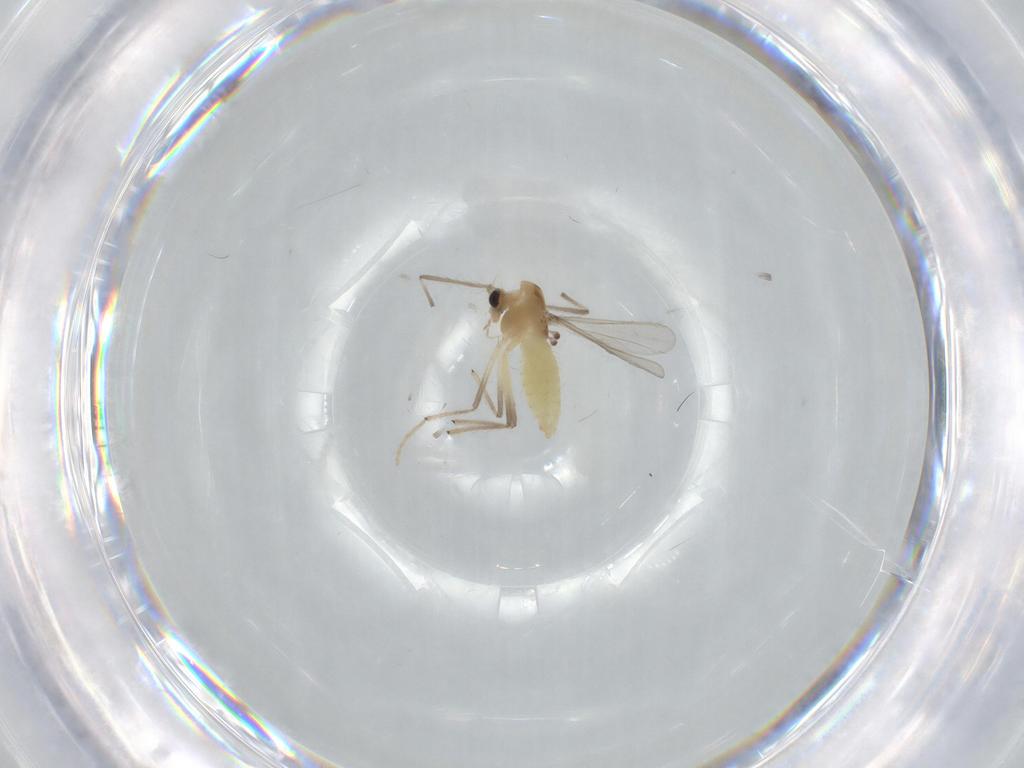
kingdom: Animalia
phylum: Arthropoda
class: Insecta
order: Diptera
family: Chironomidae
